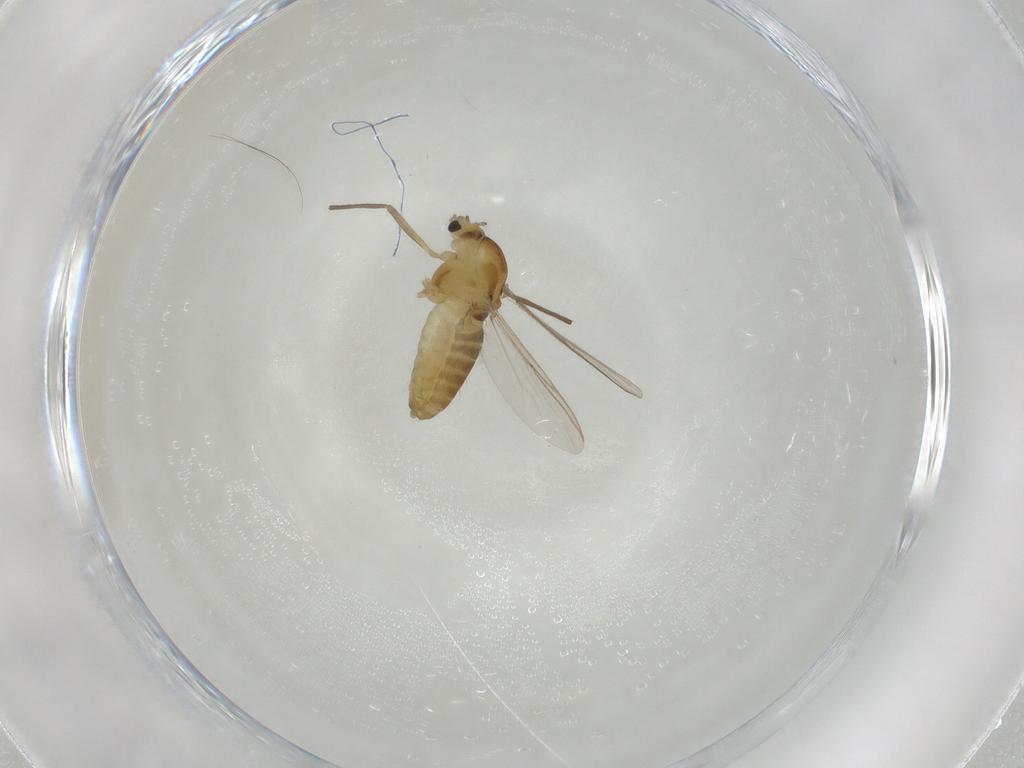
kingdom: Animalia
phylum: Arthropoda
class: Insecta
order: Diptera
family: Chironomidae
